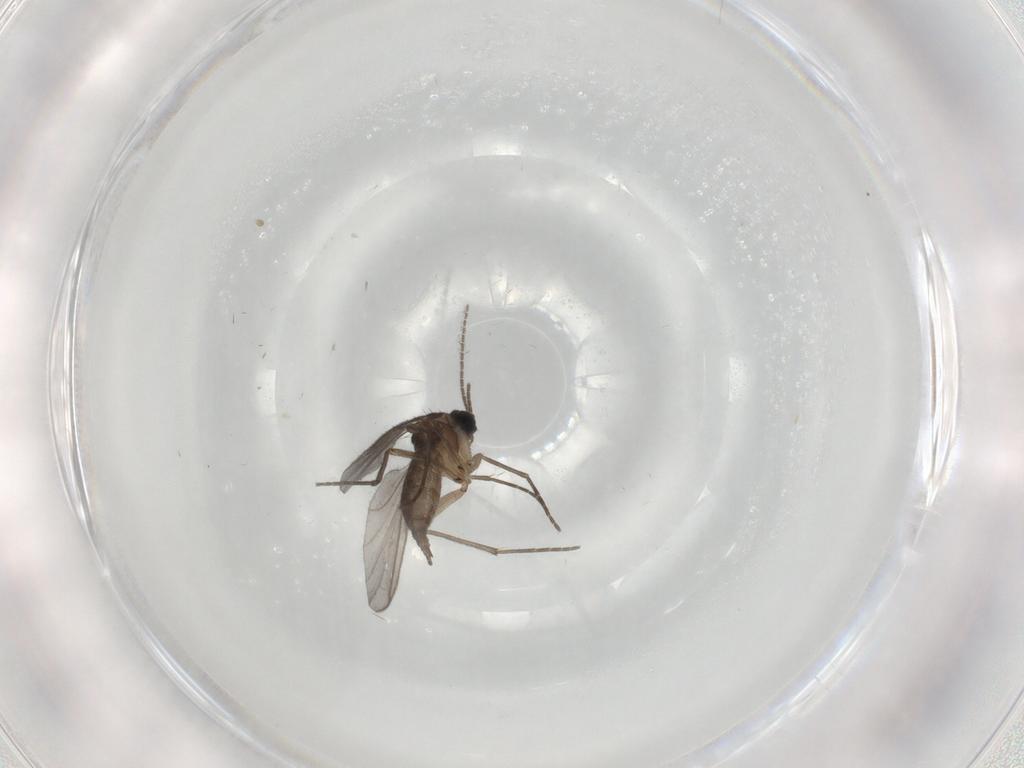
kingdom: Animalia
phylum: Arthropoda
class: Insecta
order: Diptera
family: Sciaridae
